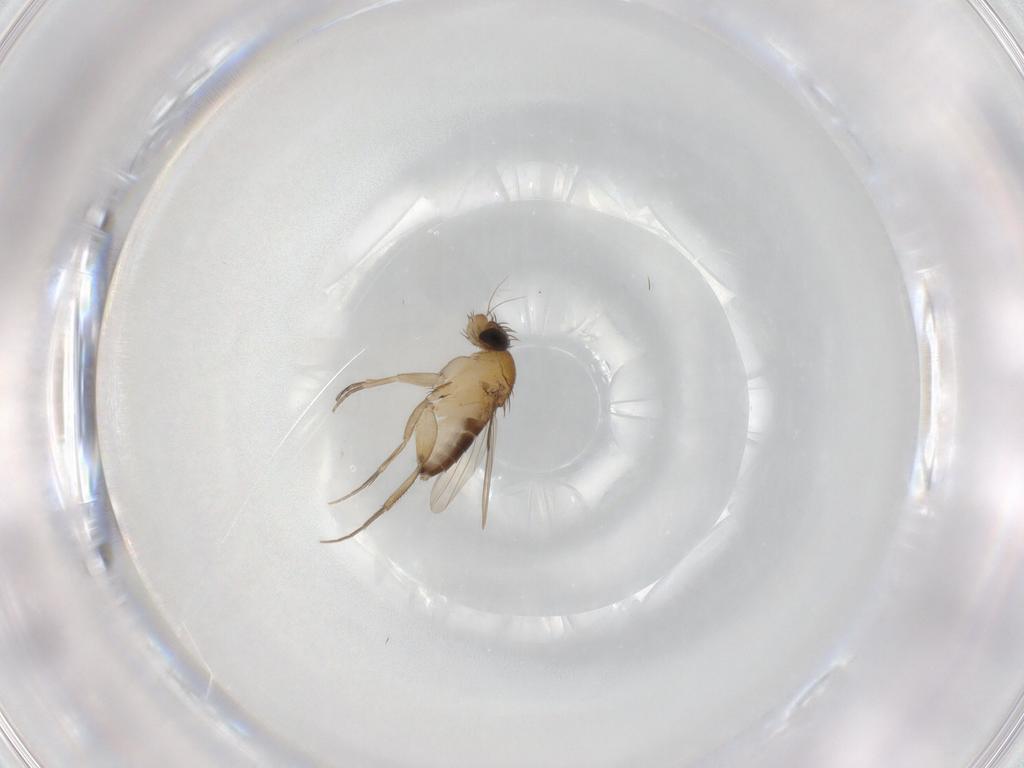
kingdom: Animalia
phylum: Arthropoda
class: Insecta
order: Diptera
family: Phoridae
